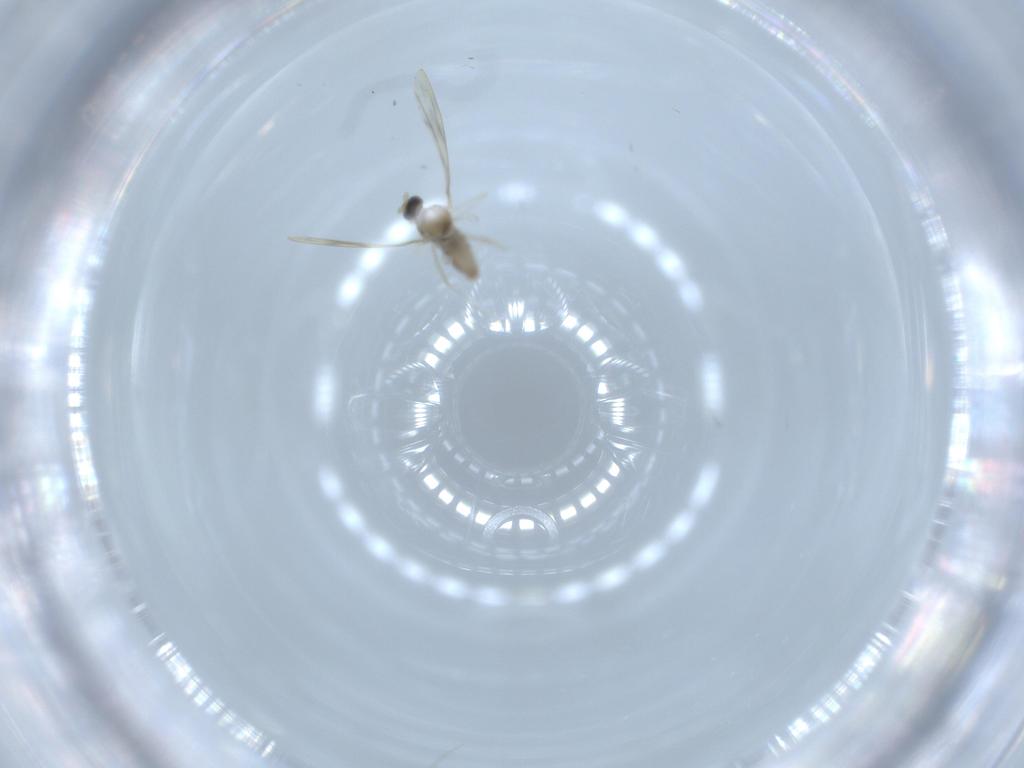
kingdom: Animalia
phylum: Arthropoda
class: Insecta
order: Diptera
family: Cecidomyiidae
